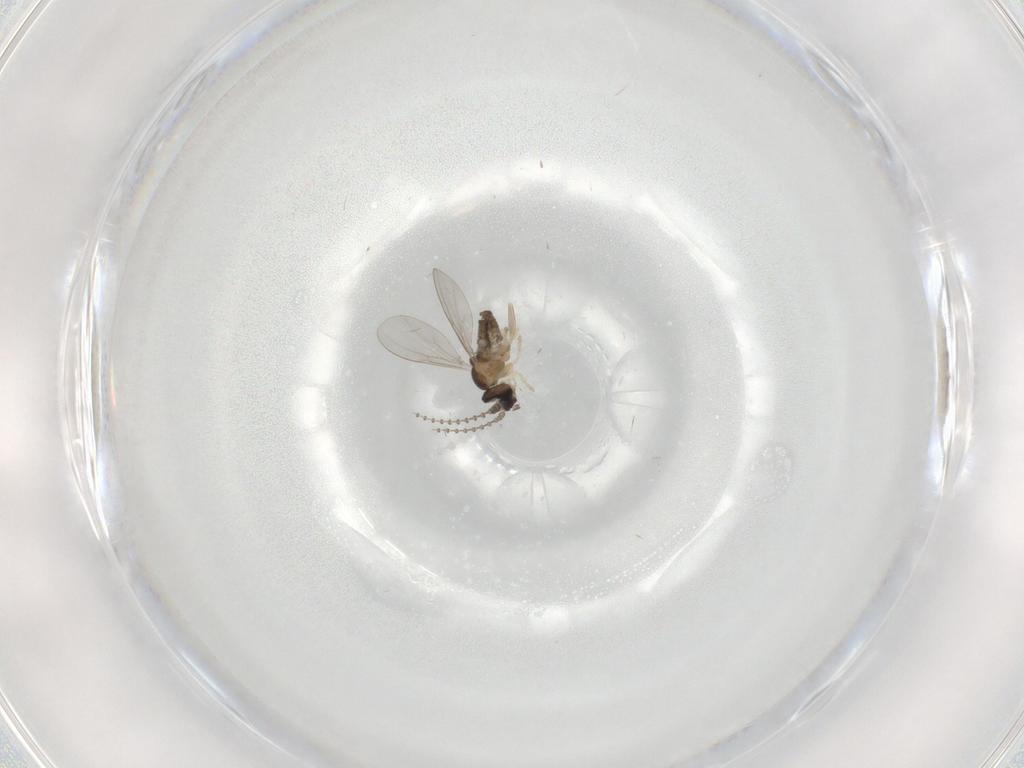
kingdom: Animalia
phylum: Arthropoda
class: Insecta
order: Diptera
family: Cecidomyiidae
